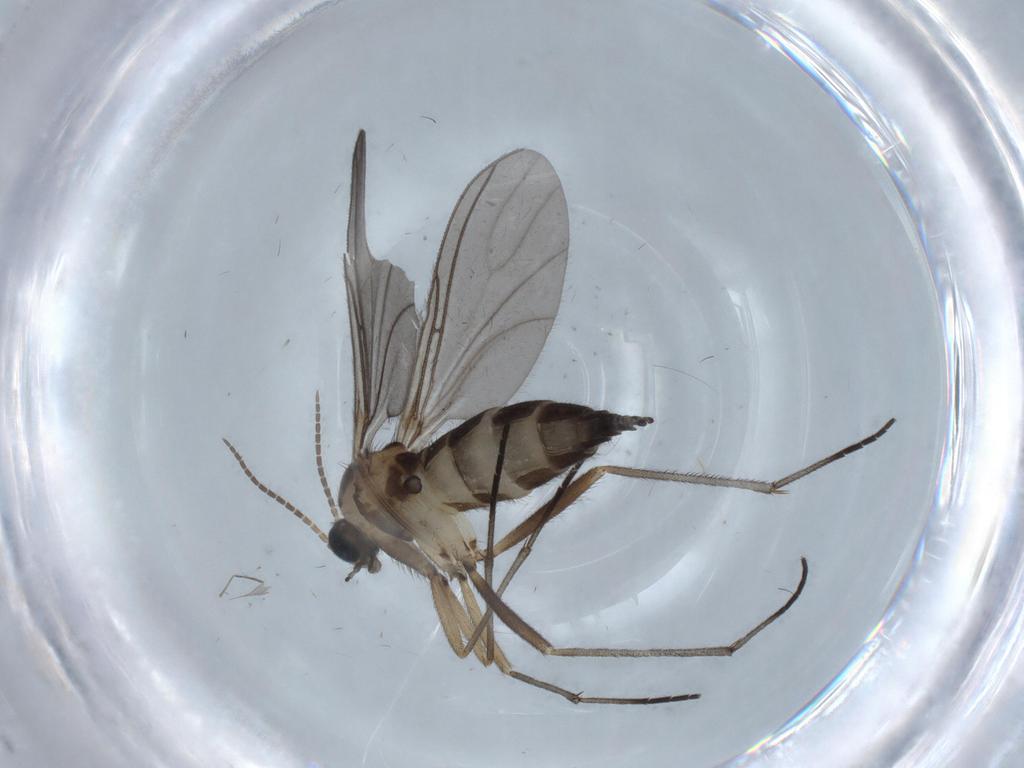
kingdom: Animalia
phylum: Arthropoda
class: Insecta
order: Diptera
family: Sciaridae
